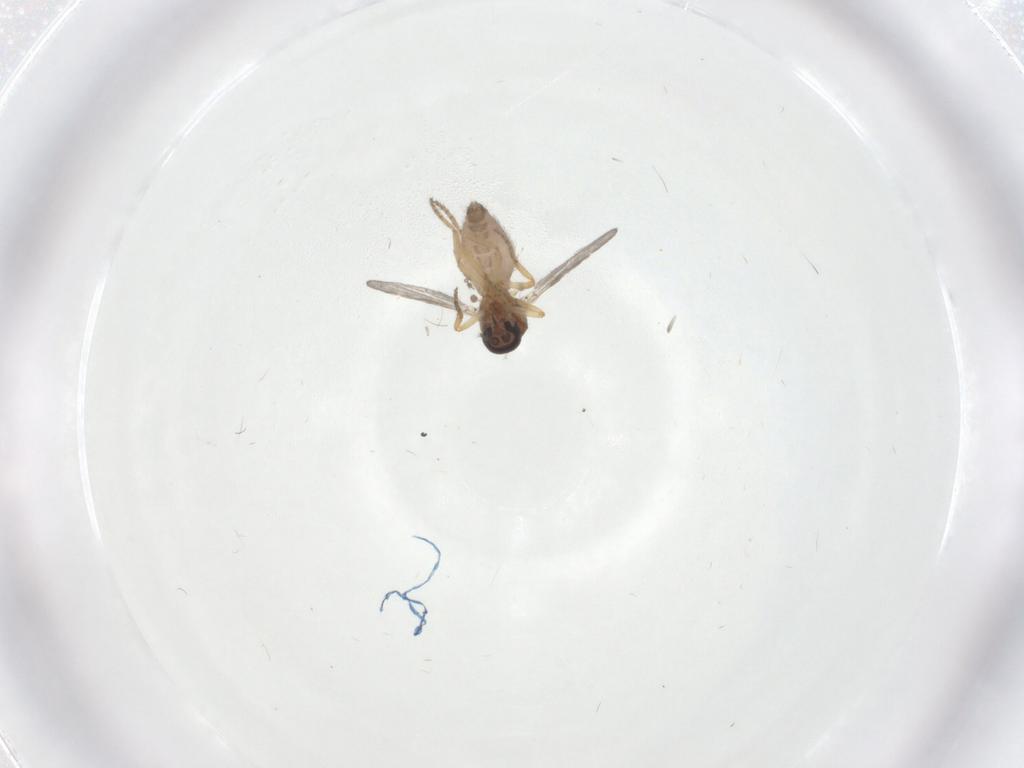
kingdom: Animalia
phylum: Arthropoda
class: Insecta
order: Diptera
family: Ceratopogonidae
